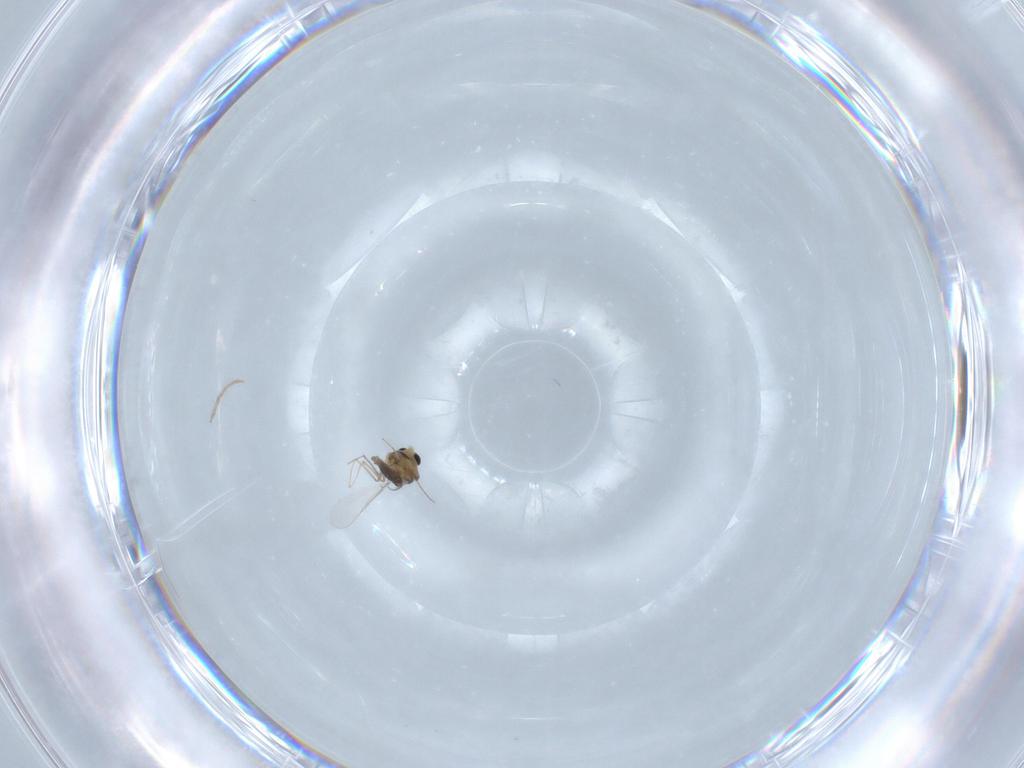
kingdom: Animalia
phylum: Arthropoda
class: Insecta
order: Diptera
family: Chironomidae
